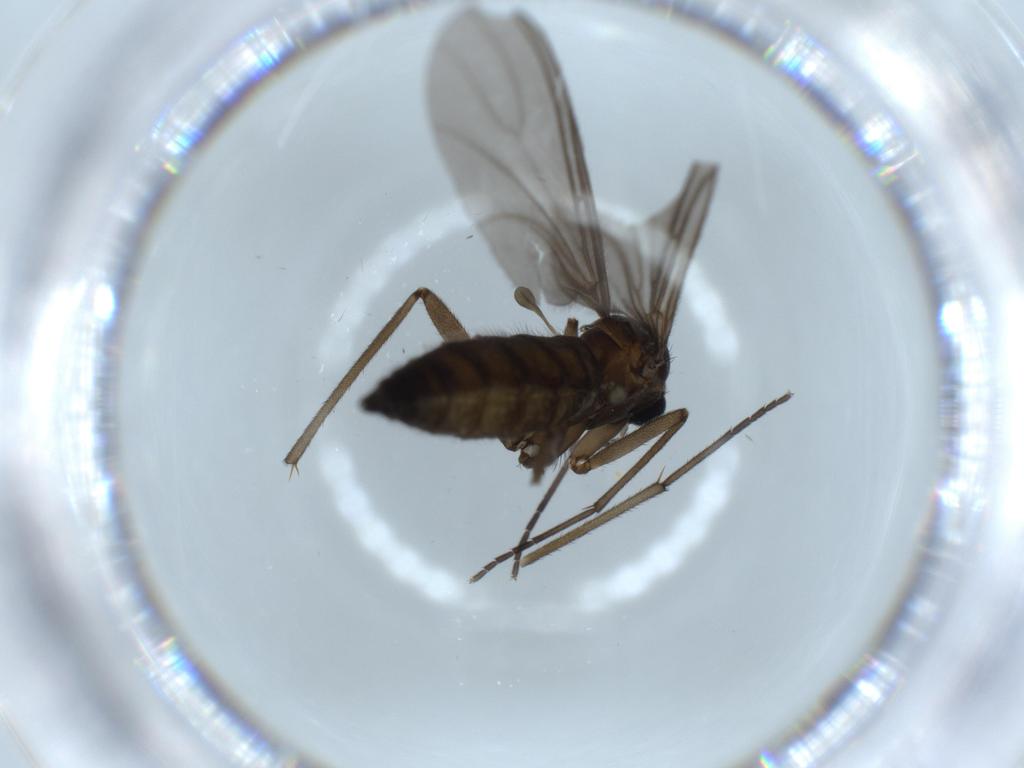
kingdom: Animalia
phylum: Arthropoda
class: Insecta
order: Diptera
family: Sciaridae
